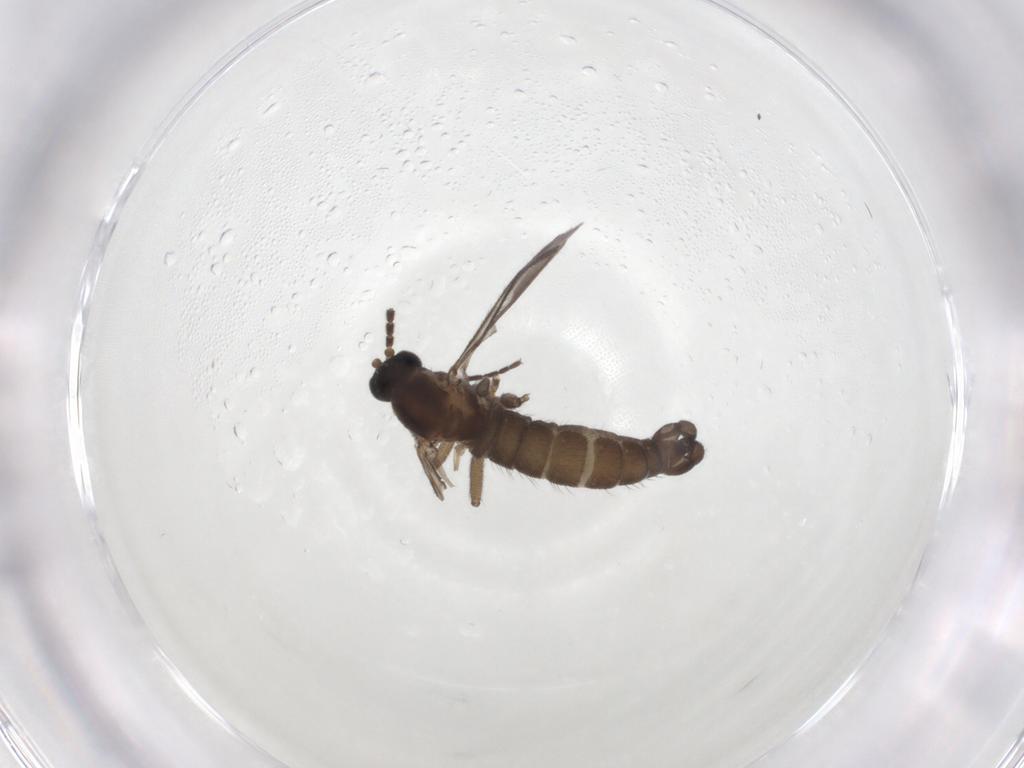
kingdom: Animalia
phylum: Arthropoda
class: Insecta
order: Diptera
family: Sciaridae
